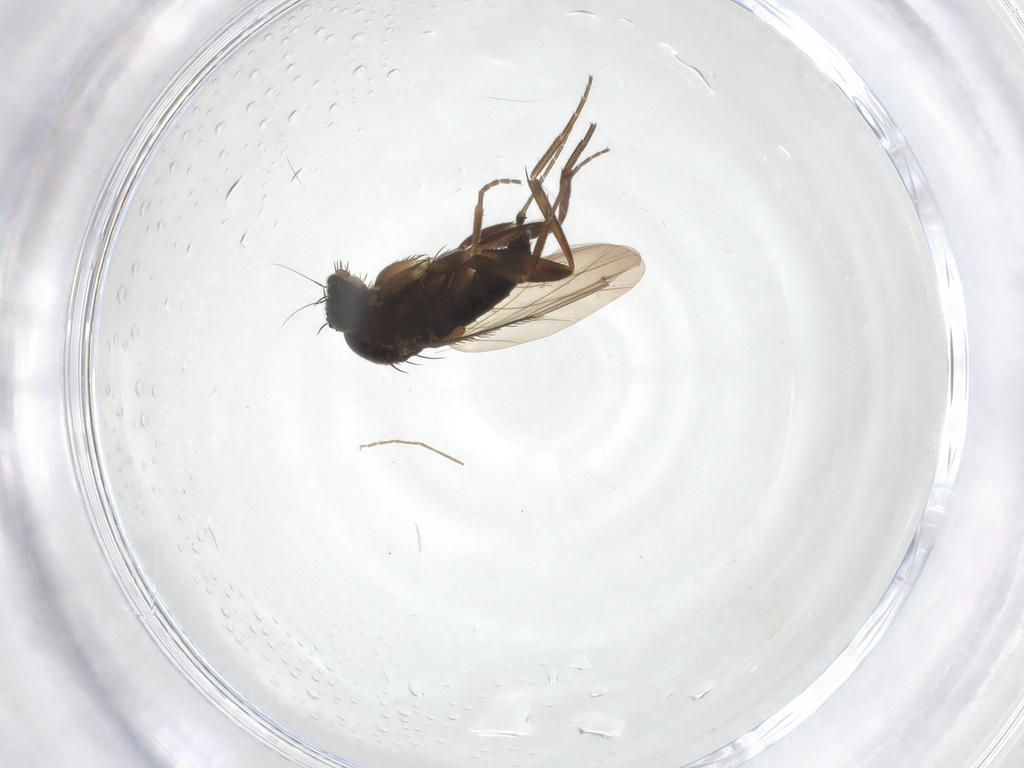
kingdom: Animalia
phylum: Arthropoda
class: Insecta
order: Diptera
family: Phoridae
